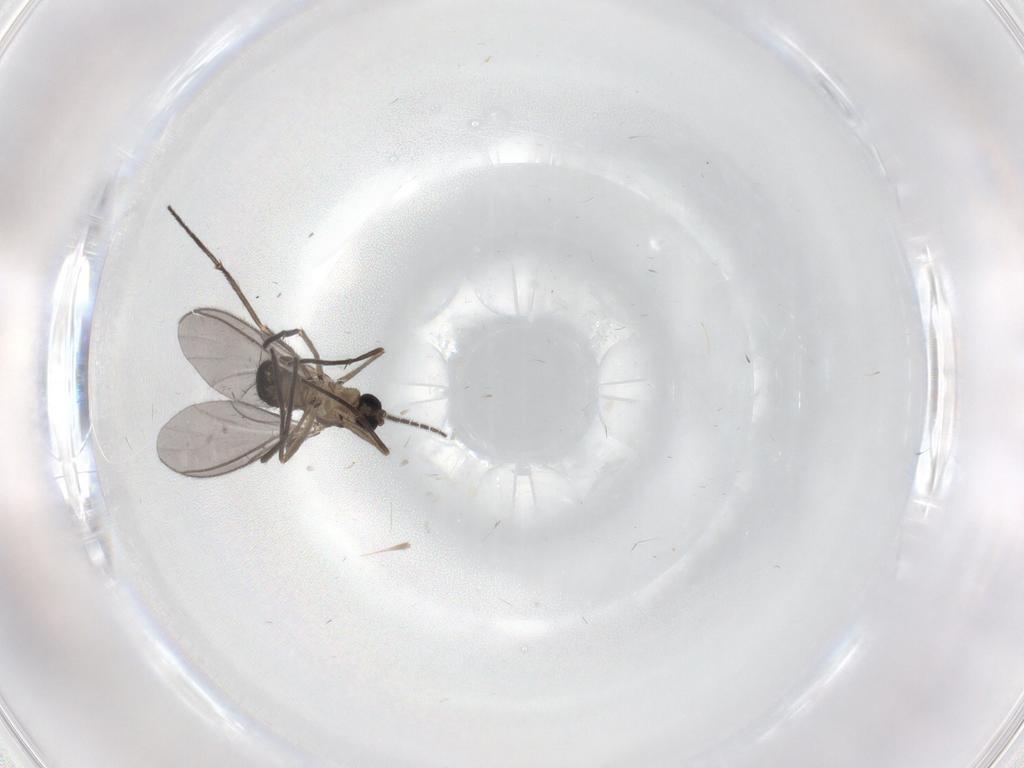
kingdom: Animalia
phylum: Arthropoda
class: Insecta
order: Diptera
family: Sciaridae
